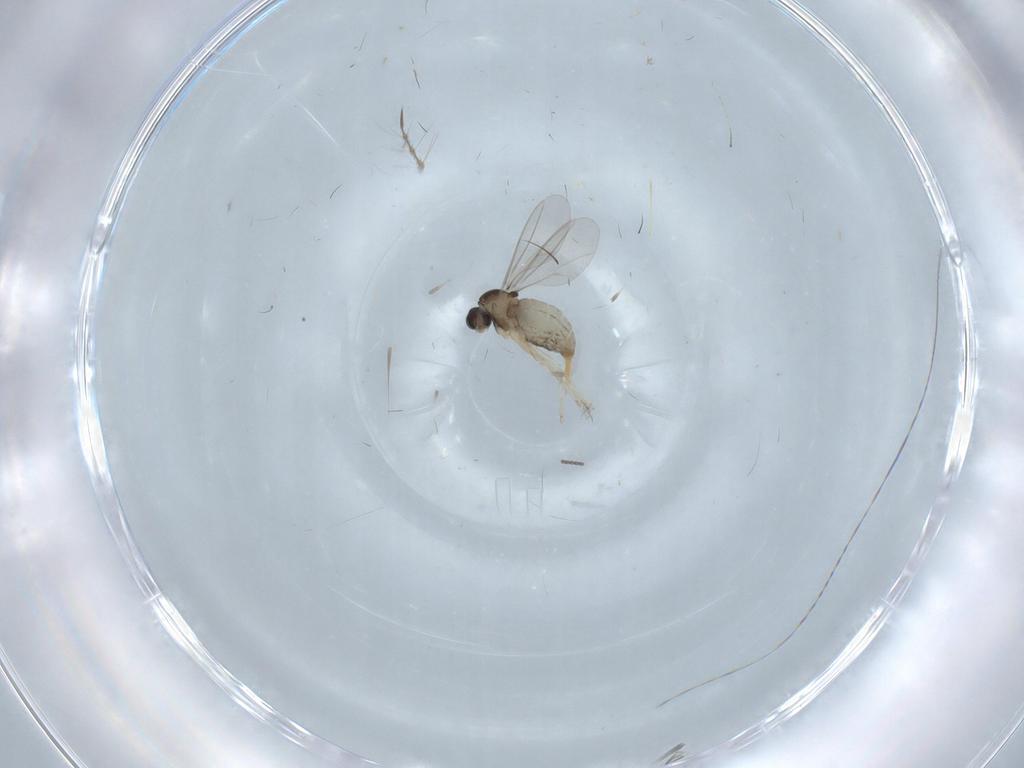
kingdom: Animalia
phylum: Arthropoda
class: Insecta
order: Diptera
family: Cecidomyiidae
